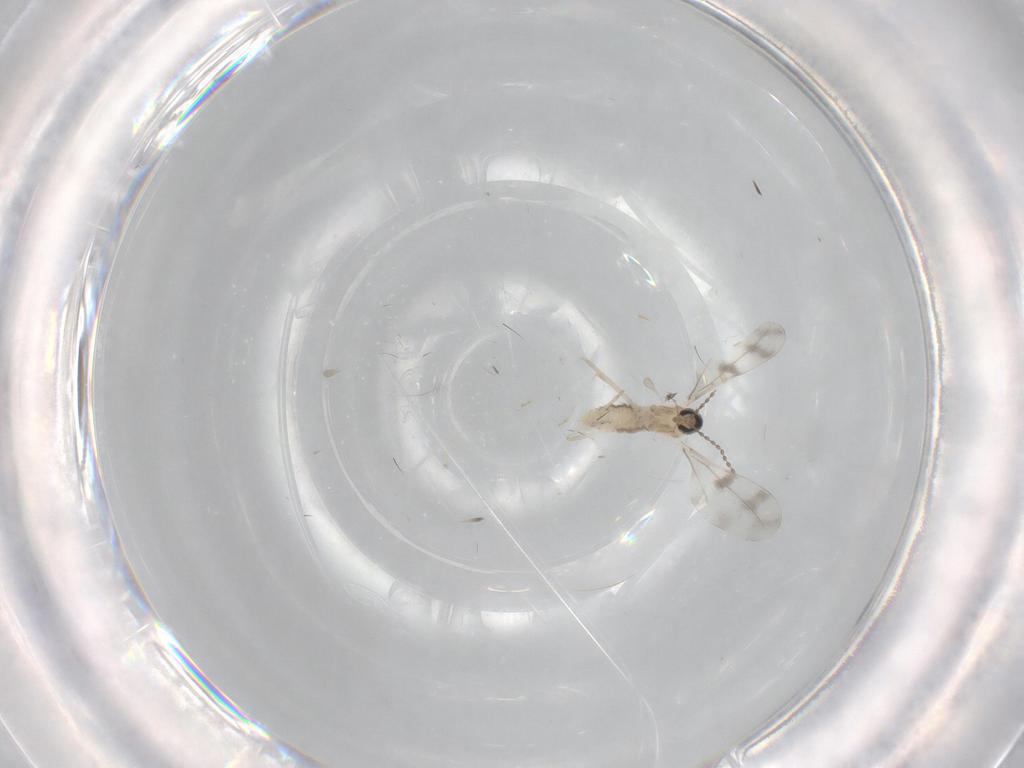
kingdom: Animalia
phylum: Arthropoda
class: Insecta
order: Diptera
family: Cecidomyiidae
